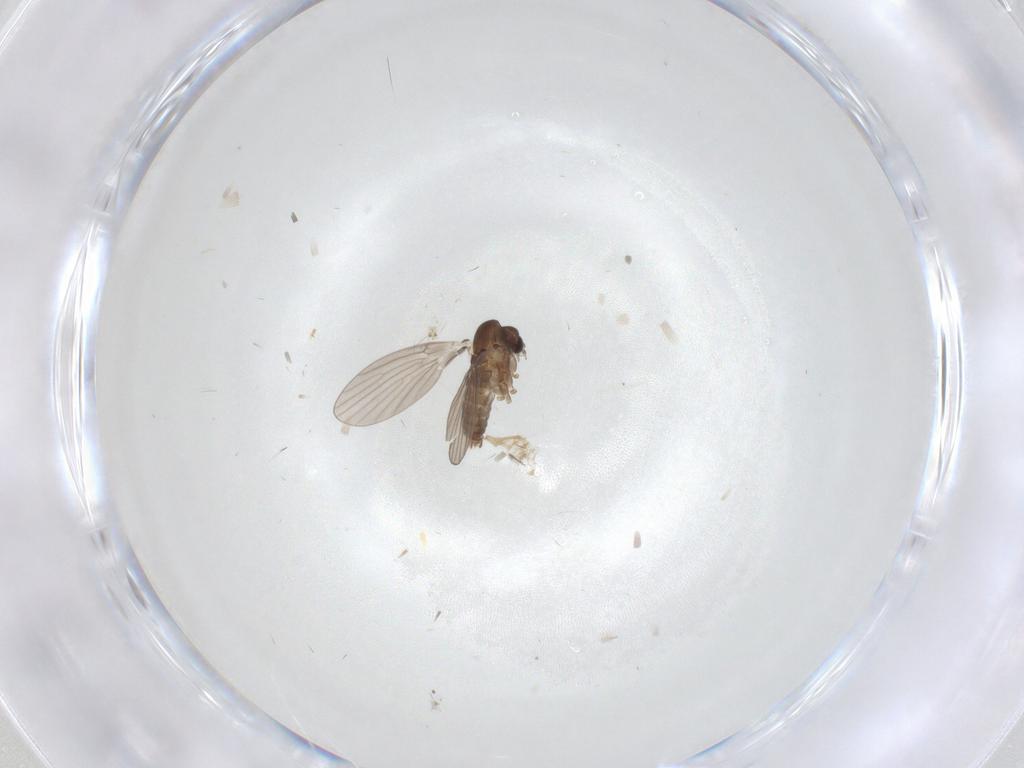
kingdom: Animalia
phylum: Arthropoda
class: Insecta
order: Diptera
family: Chironomidae
